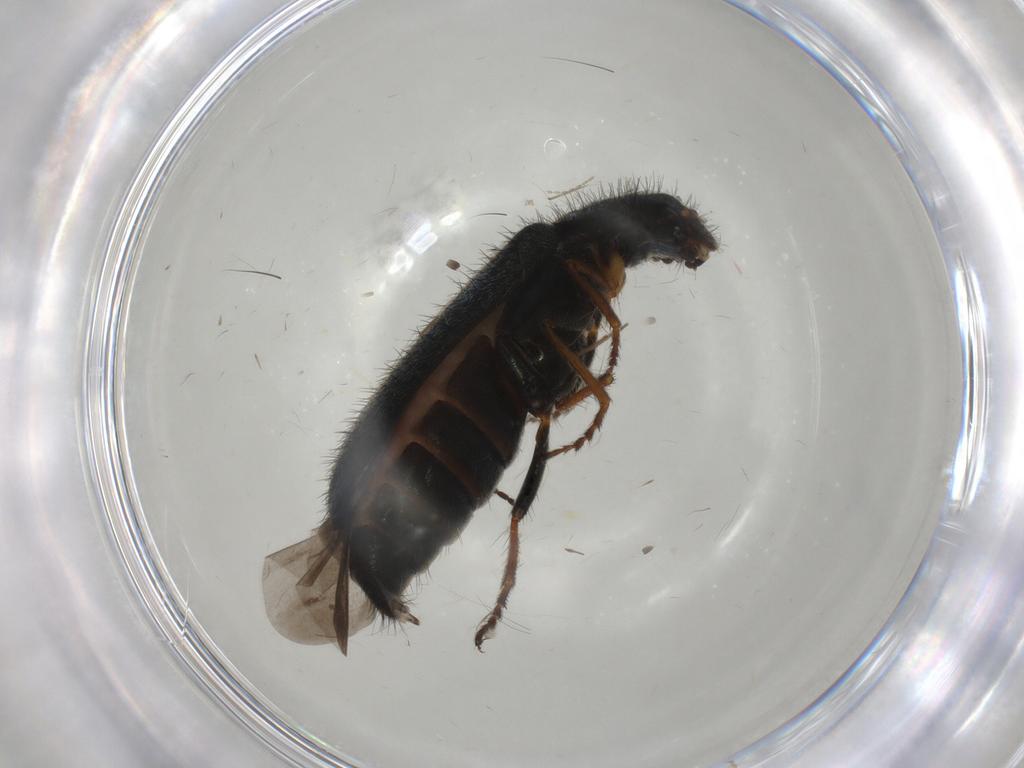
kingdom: Animalia
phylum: Arthropoda
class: Insecta
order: Coleoptera
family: Melyridae
